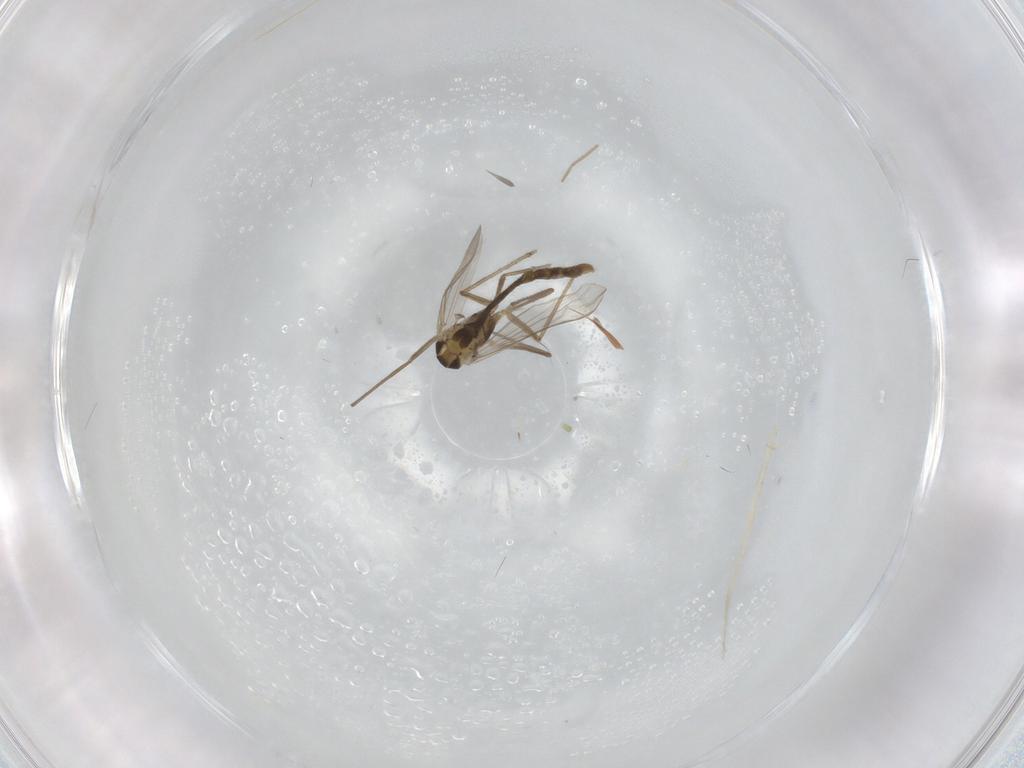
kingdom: Animalia
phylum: Arthropoda
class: Insecta
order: Diptera
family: Chironomidae
